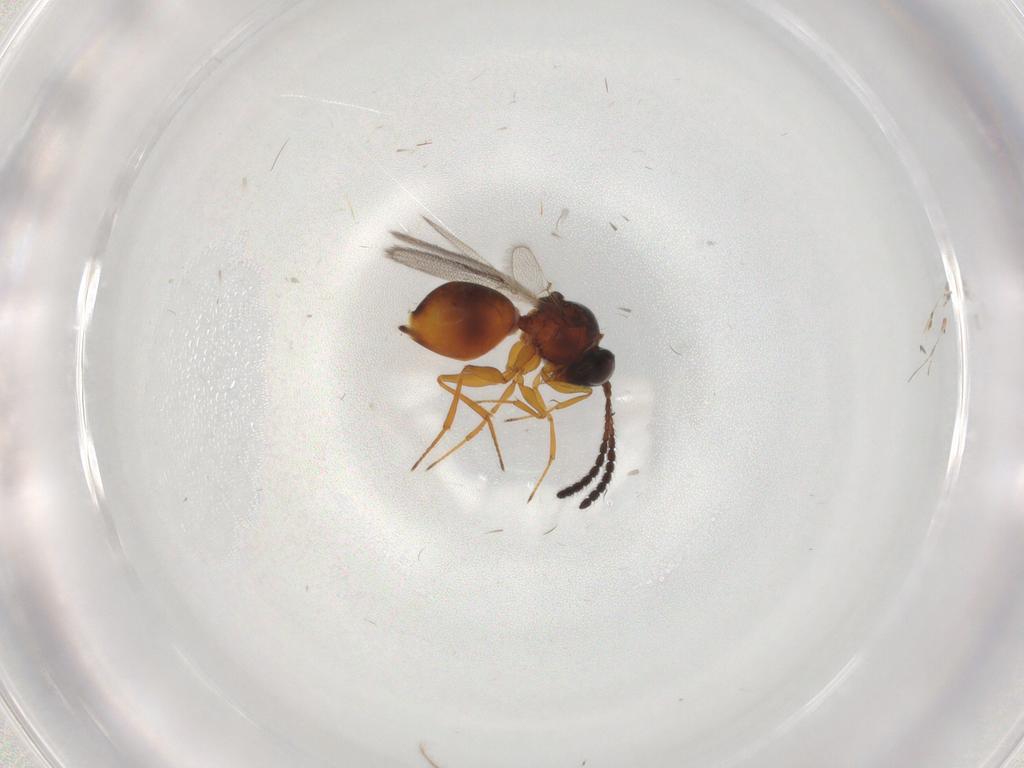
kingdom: Animalia
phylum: Arthropoda
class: Insecta
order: Hymenoptera
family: Figitidae
